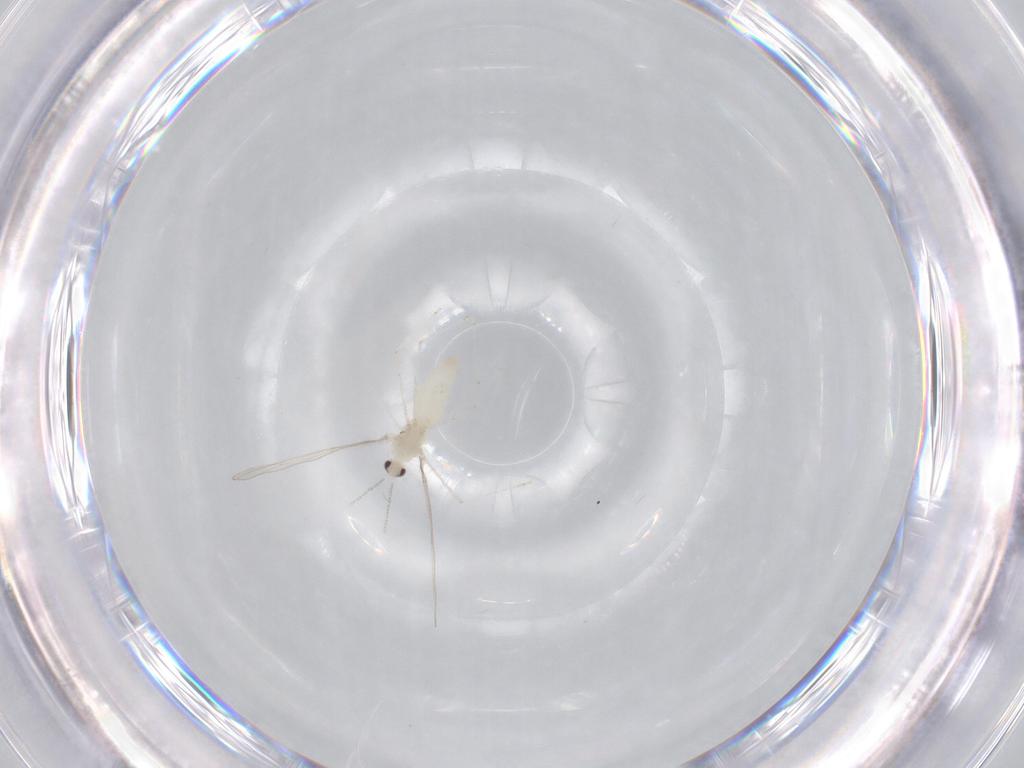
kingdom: Animalia
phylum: Arthropoda
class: Insecta
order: Diptera
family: Cecidomyiidae
